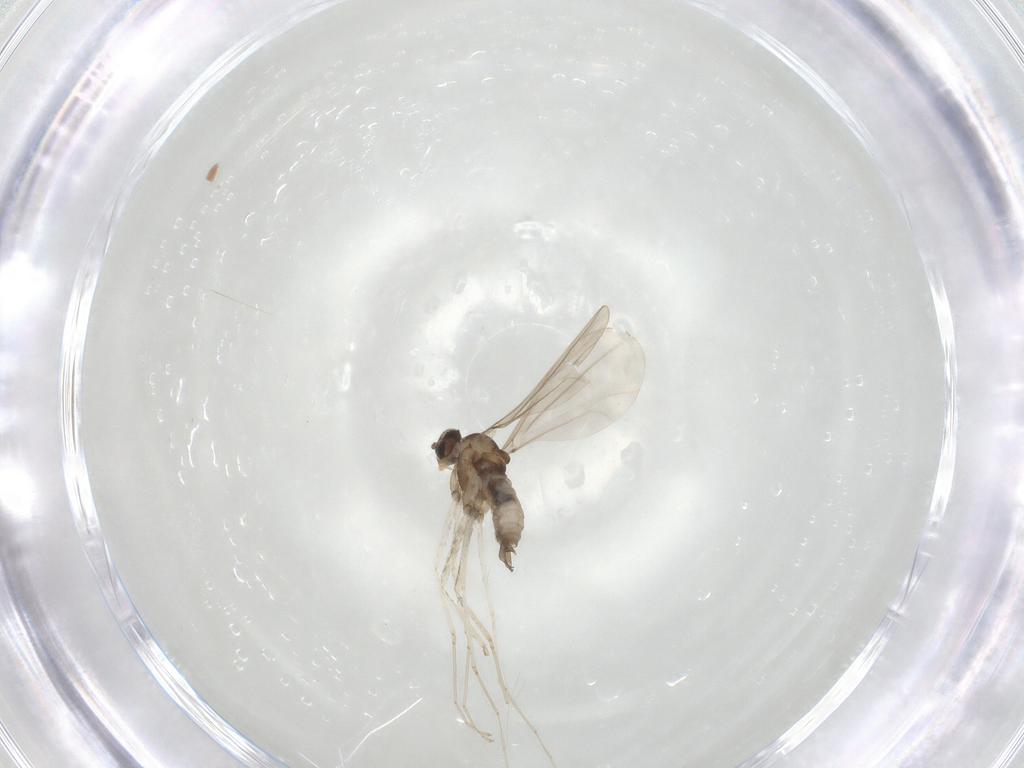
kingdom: Animalia
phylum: Arthropoda
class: Insecta
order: Diptera
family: Phoridae
